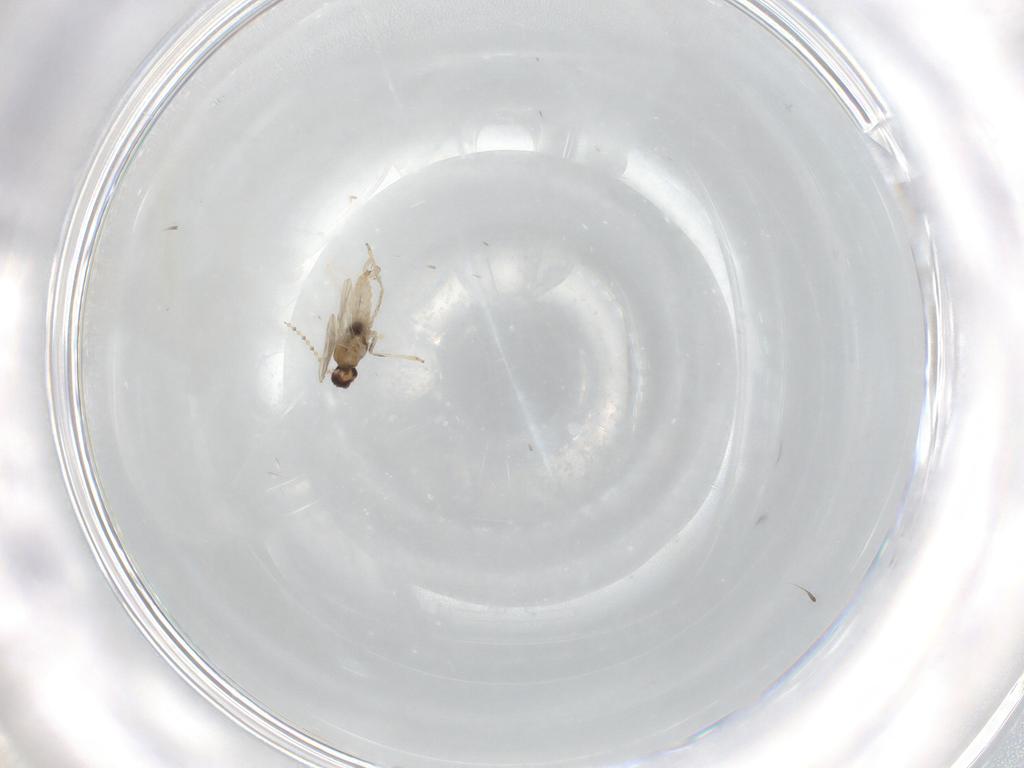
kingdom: Animalia
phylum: Arthropoda
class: Insecta
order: Diptera
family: Cecidomyiidae
